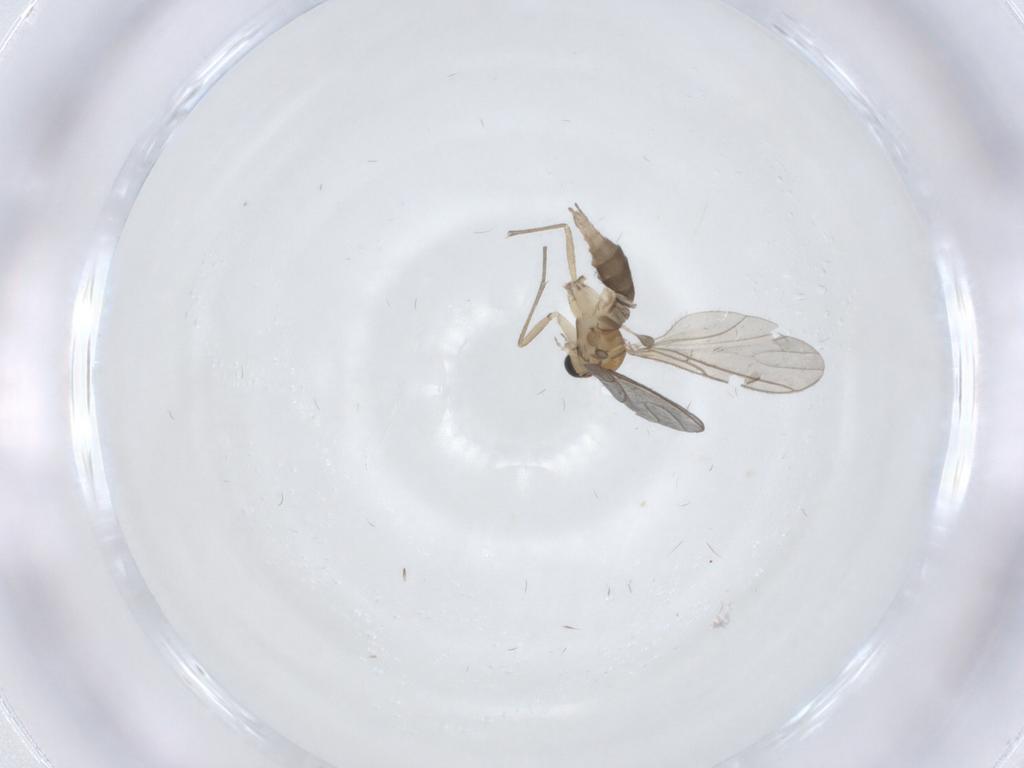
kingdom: Animalia
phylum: Arthropoda
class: Insecta
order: Diptera
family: Sciaridae
